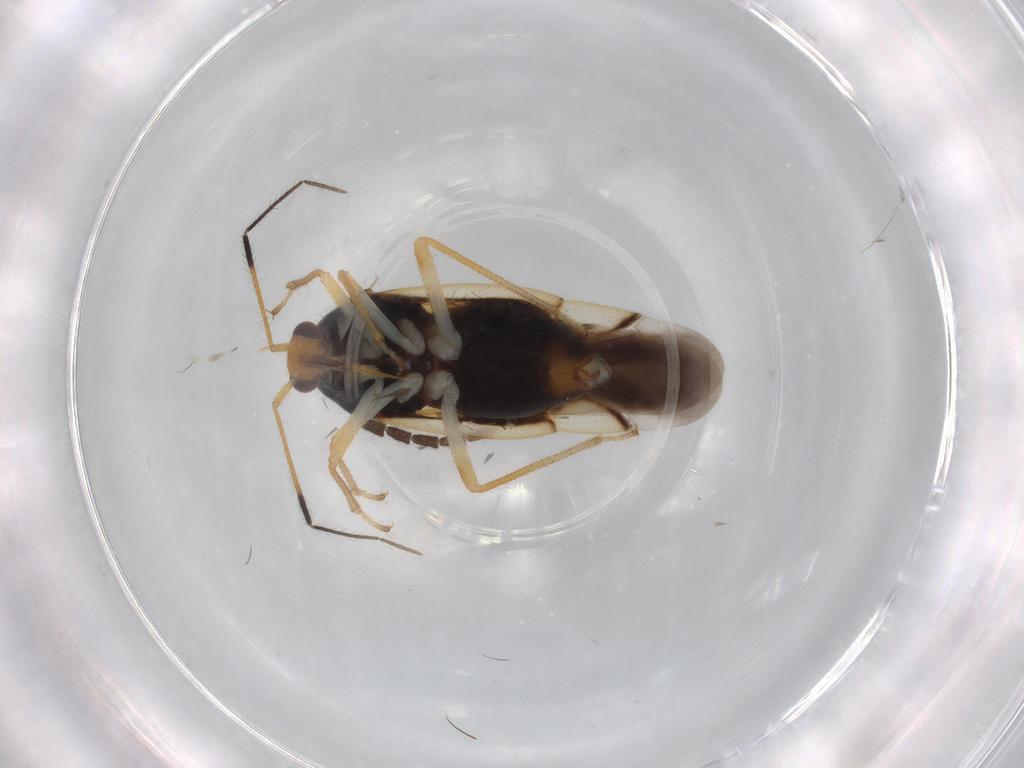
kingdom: Animalia
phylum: Arthropoda
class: Insecta
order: Hemiptera
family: Miridae
